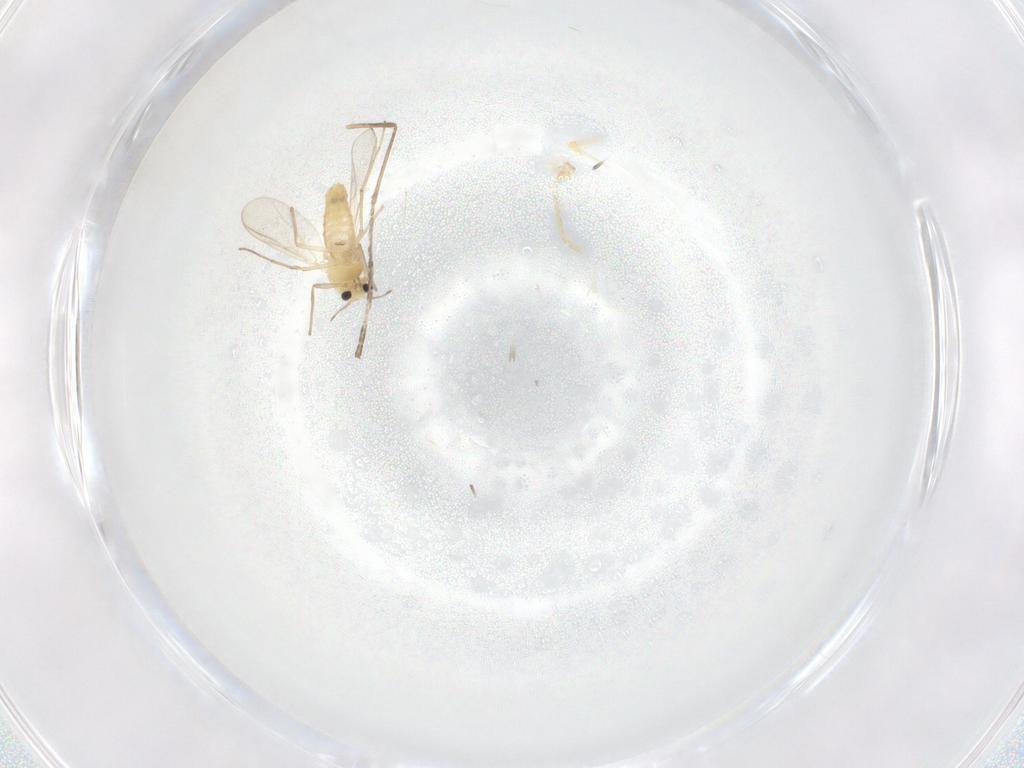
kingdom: Animalia
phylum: Arthropoda
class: Insecta
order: Diptera
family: Chironomidae
